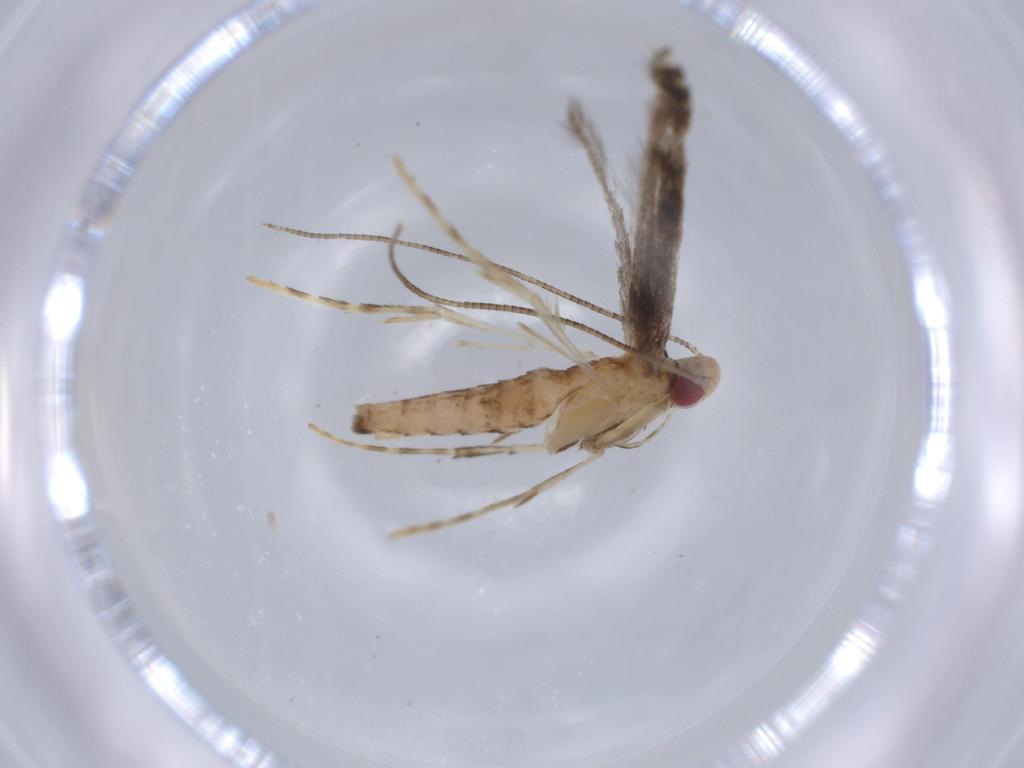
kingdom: Animalia
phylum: Arthropoda
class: Insecta
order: Lepidoptera
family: Gracillariidae
